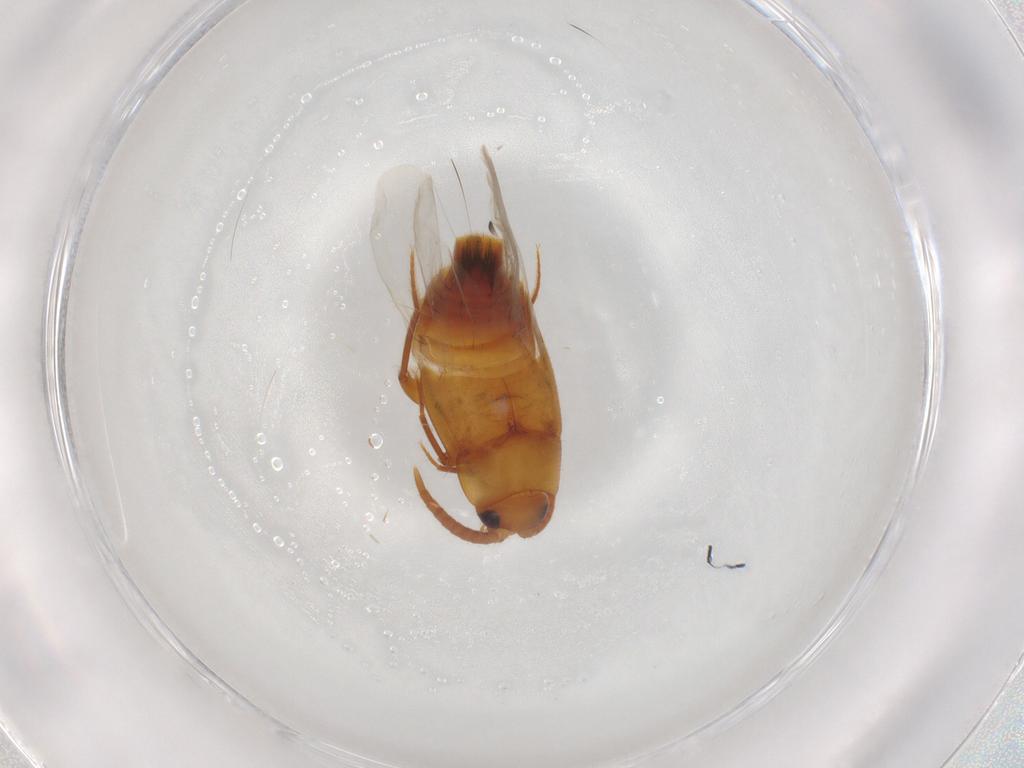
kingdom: Animalia
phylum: Arthropoda
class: Insecta
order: Coleoptera
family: Staphylinidae
